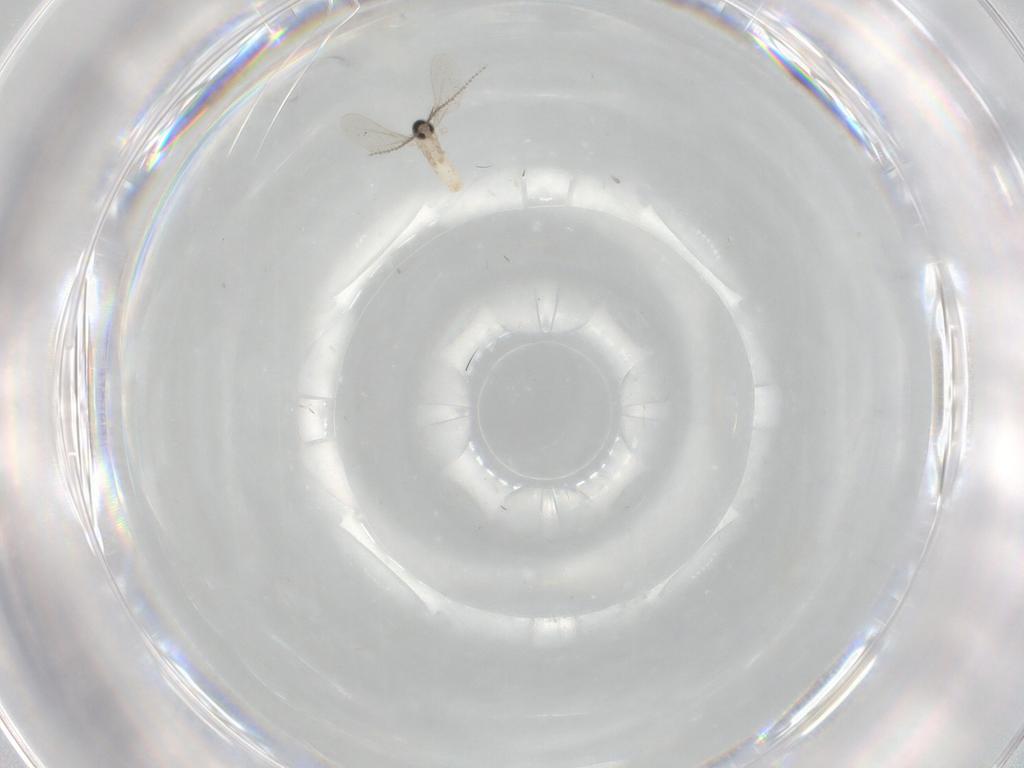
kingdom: Animalia
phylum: Arthropoda
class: Insecta
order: Diptera
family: Cecidomyiidae
